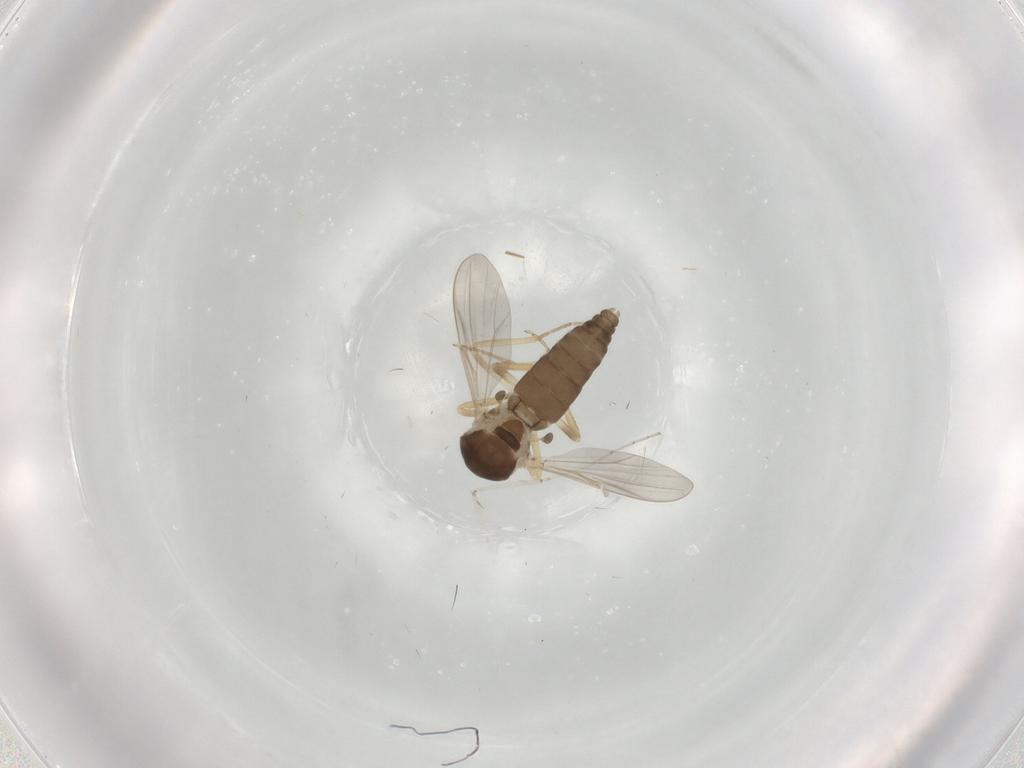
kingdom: Animalia
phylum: Arthropoda
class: Insecta
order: Diptera
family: Ceratopogonidae
